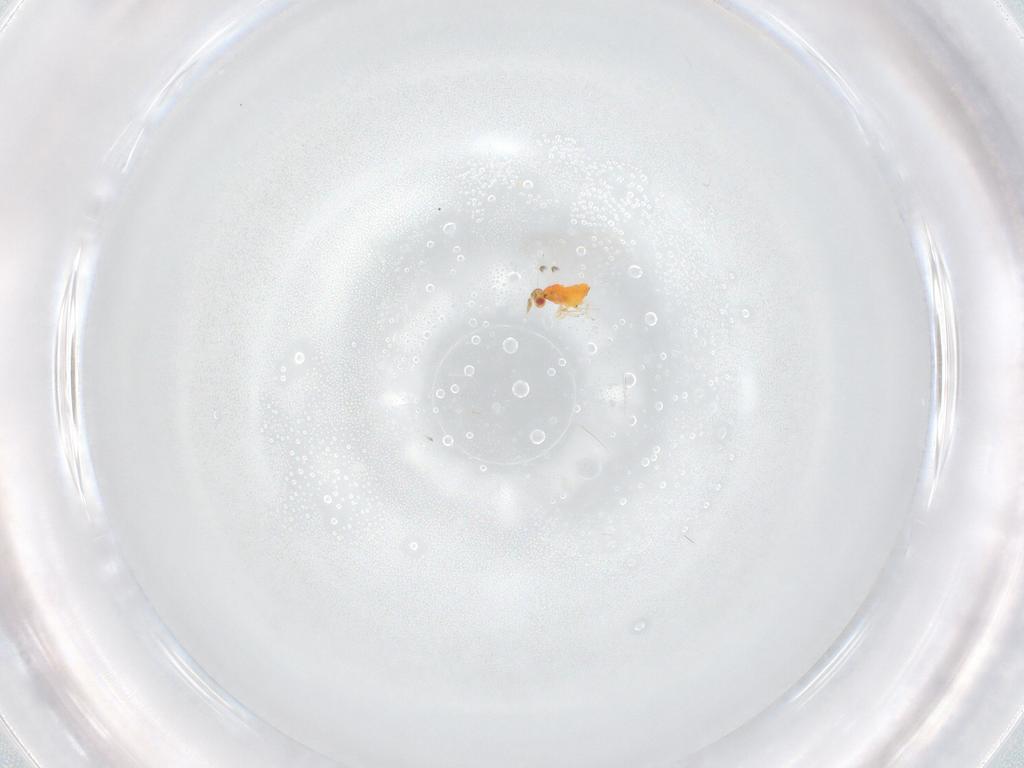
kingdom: Animalia
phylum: Arthropoda
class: Insecta
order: Hymenoptera
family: Trichogrammatidae
